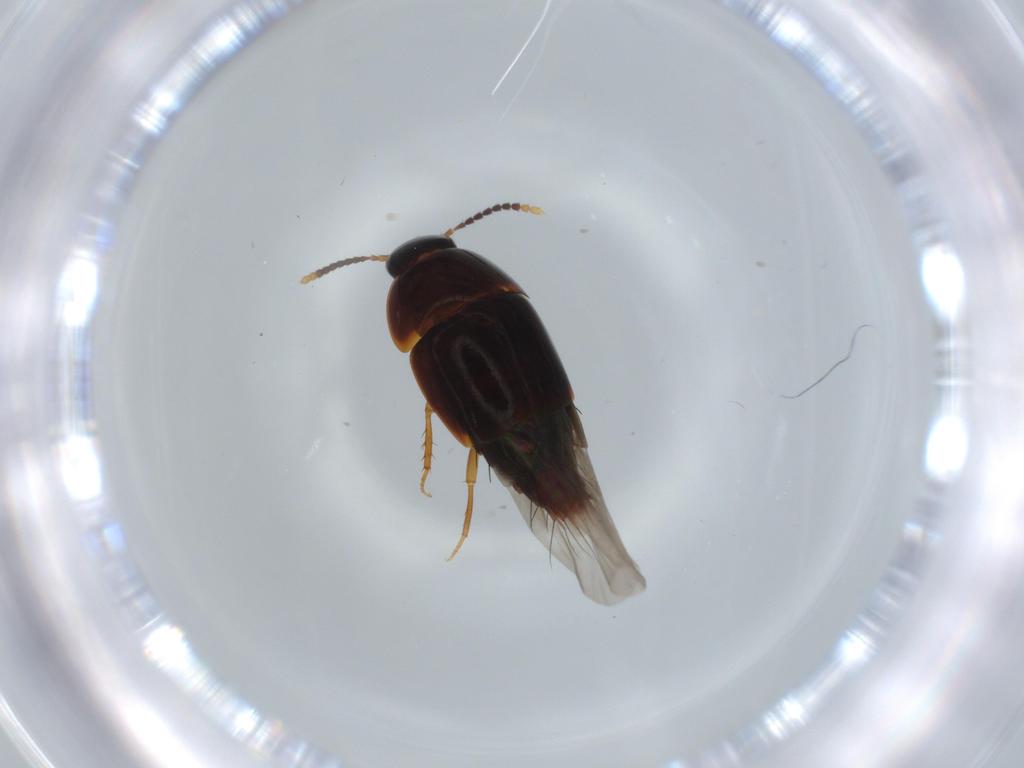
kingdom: Animalia
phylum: Arthropoda
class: Insecta
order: Coleoptera
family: Staphylinidae
